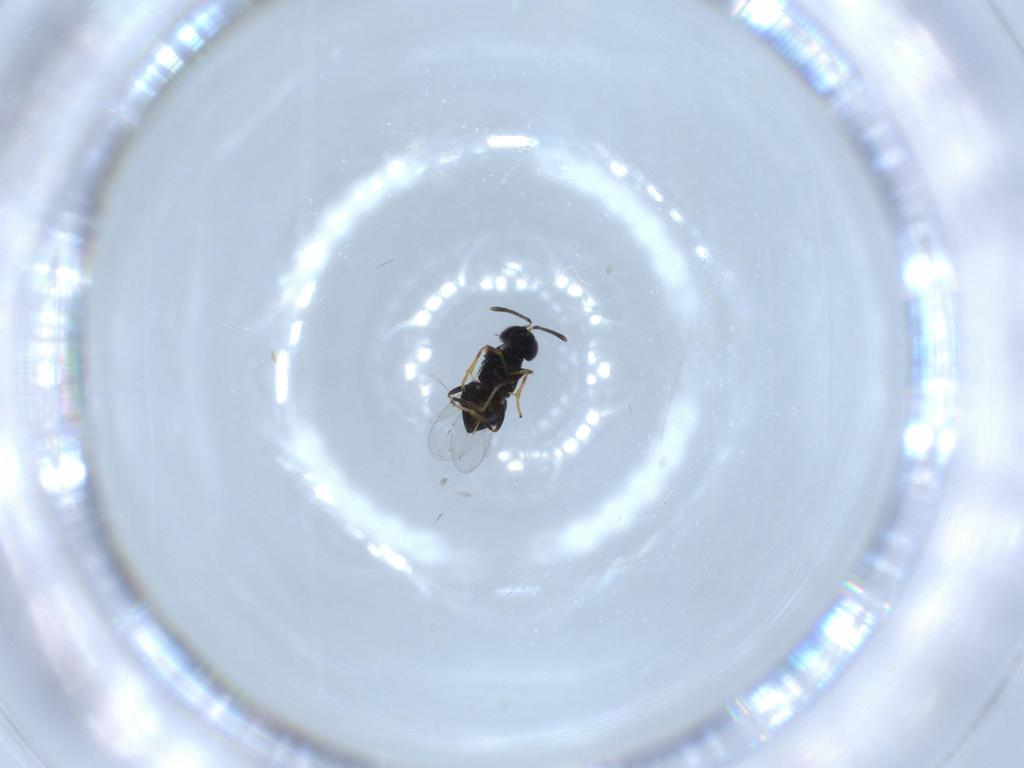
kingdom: Animalia
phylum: Arthropoda
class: Insecta
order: Hymenoptera
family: Encyrtidae
